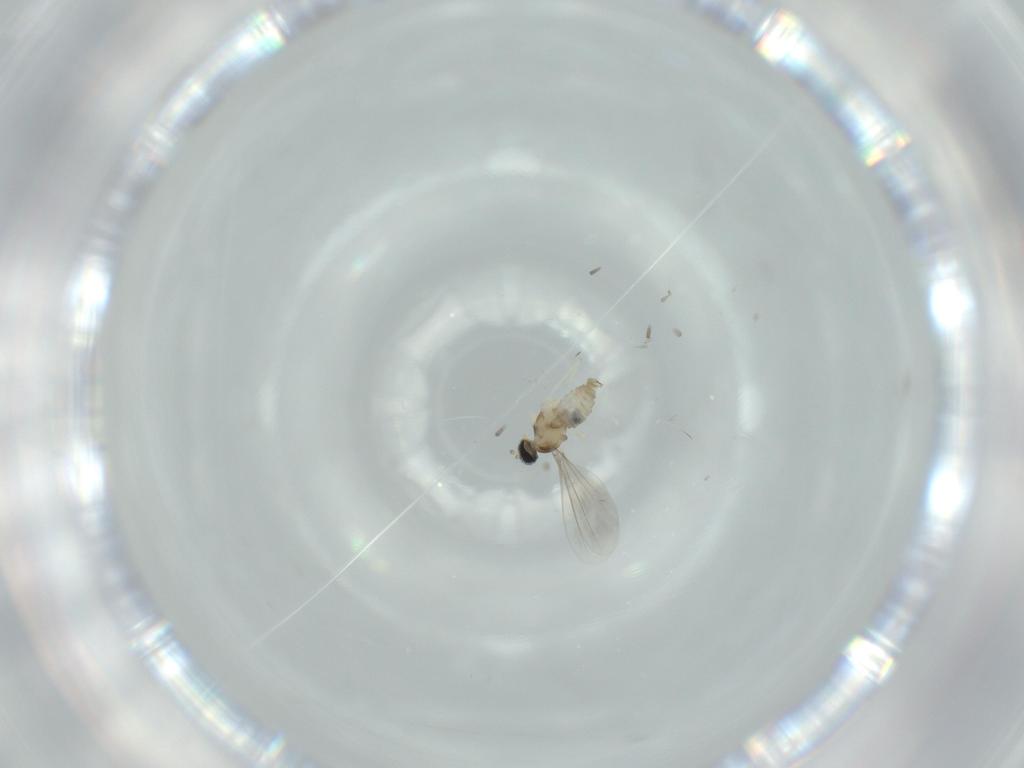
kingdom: Animalia
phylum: Arthropoda
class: Insecta
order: Diptera
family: Cecidomyiidae
